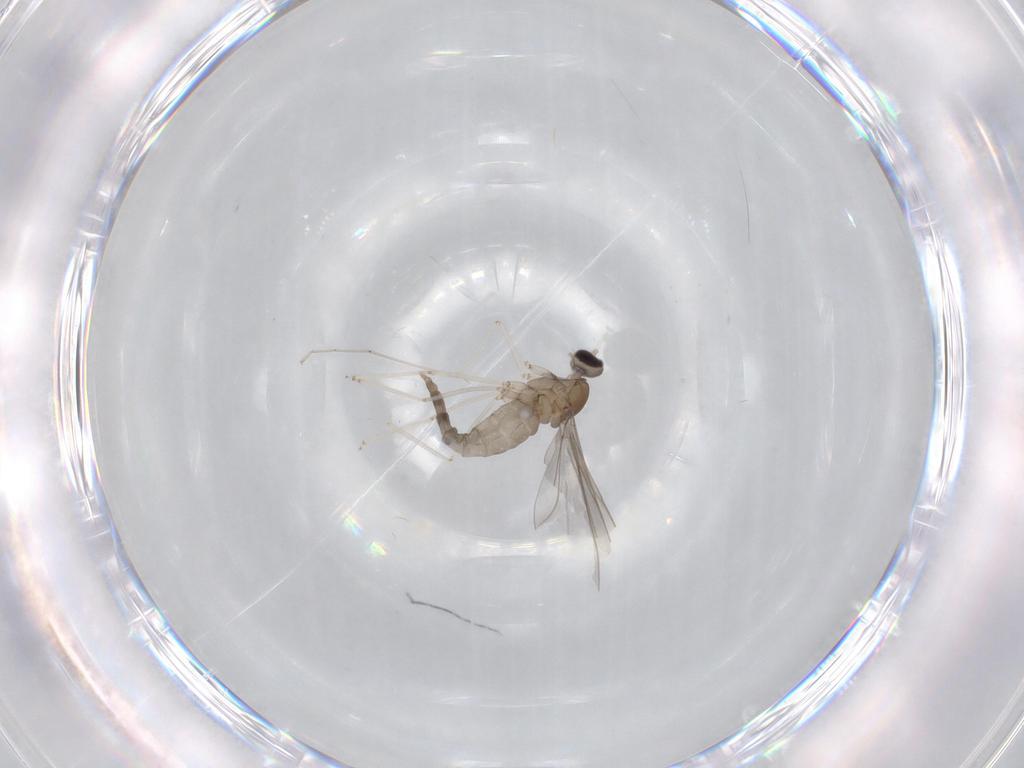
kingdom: Animalia
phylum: Arthropoda
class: Insecta
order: Diptera
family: Cecidomyiidae
